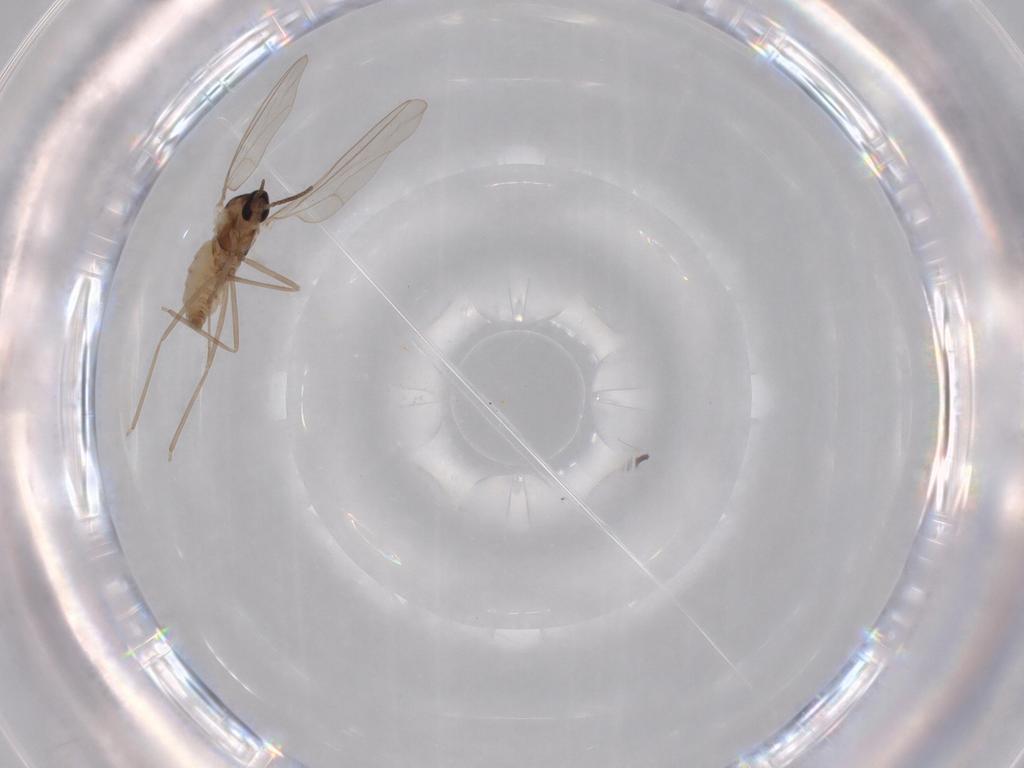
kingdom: Animalia
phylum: Arthropoda
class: Insecta
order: Diptera
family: Cecidomyiidae
